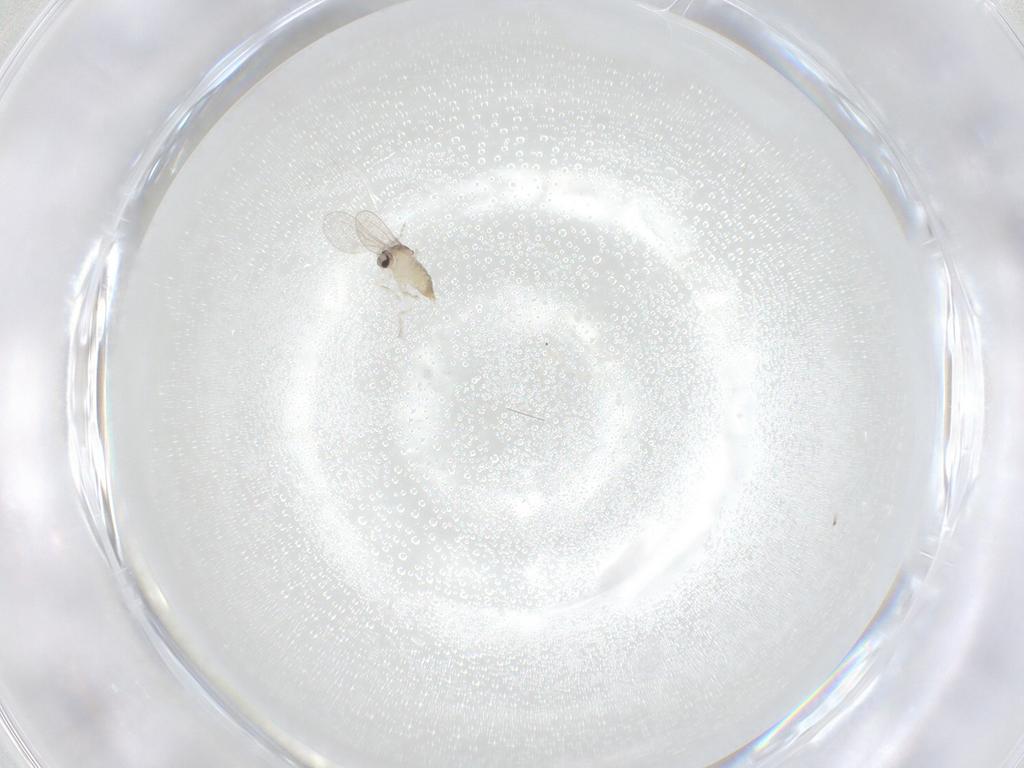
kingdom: Animalia
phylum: Arthropoda
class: Insecta
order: Diptera
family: Cecidomyiidae
